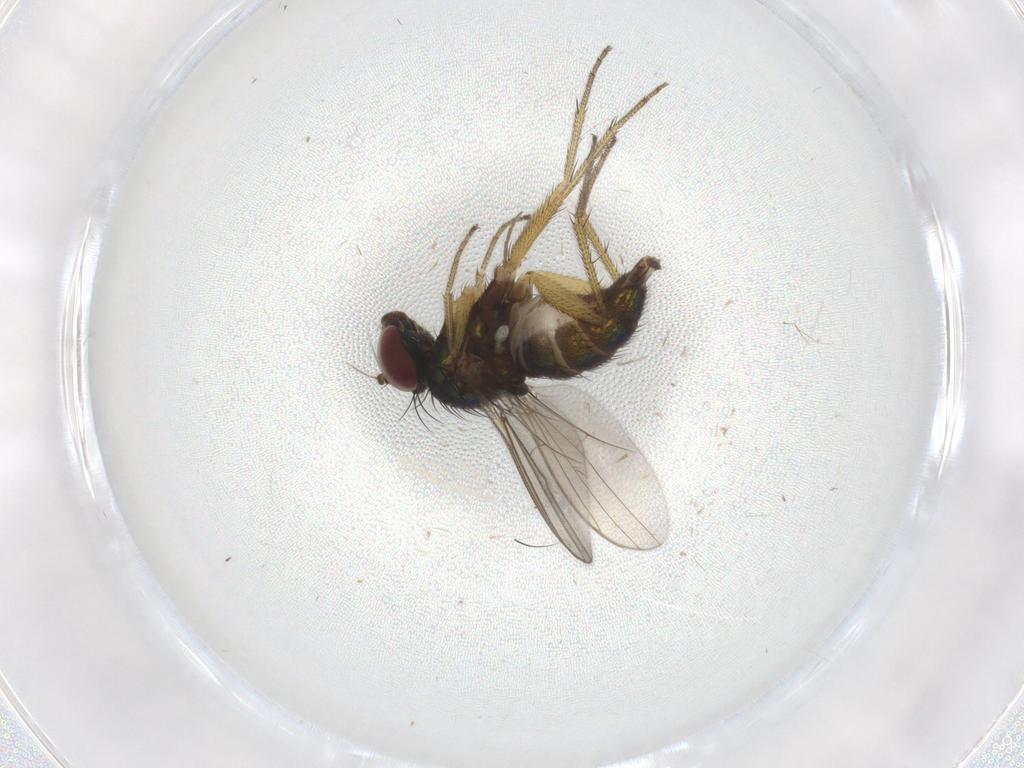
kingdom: Animalia
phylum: Arthropoda
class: Insecta
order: Diptera
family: Dolichopodidae
